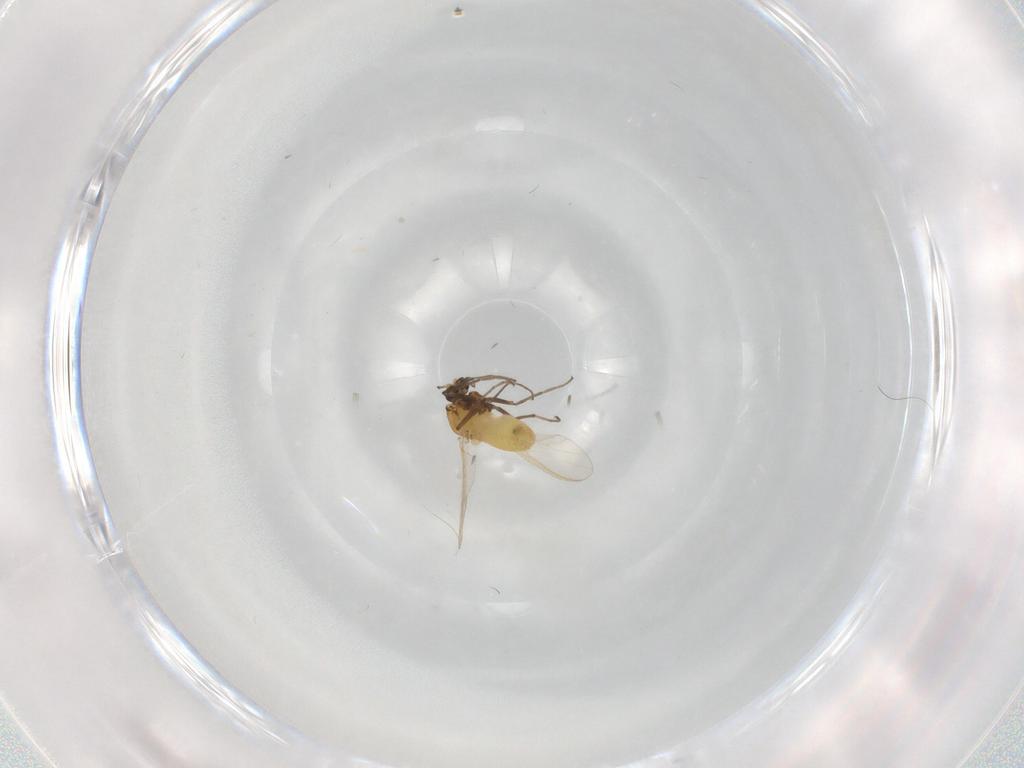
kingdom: Animalia
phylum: Arthropoda
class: Insecta
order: Diptera
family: Chironomidae
